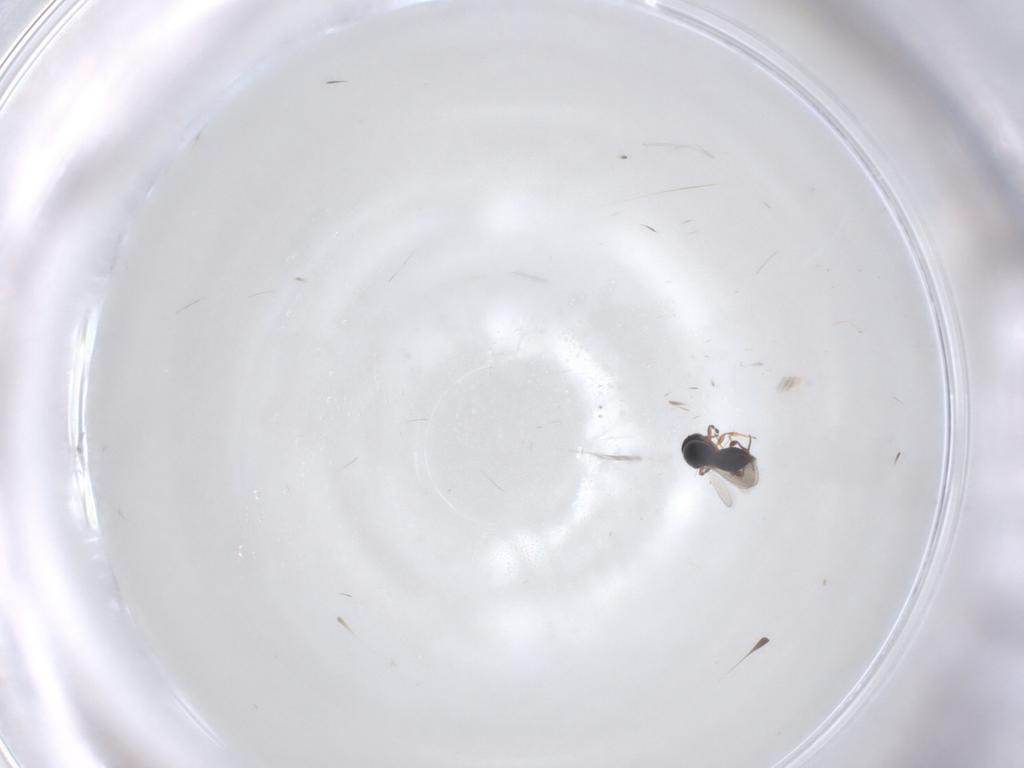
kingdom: Animalia
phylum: Arthropoda
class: Insecta
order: Hymenoptera
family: Platygastridae
